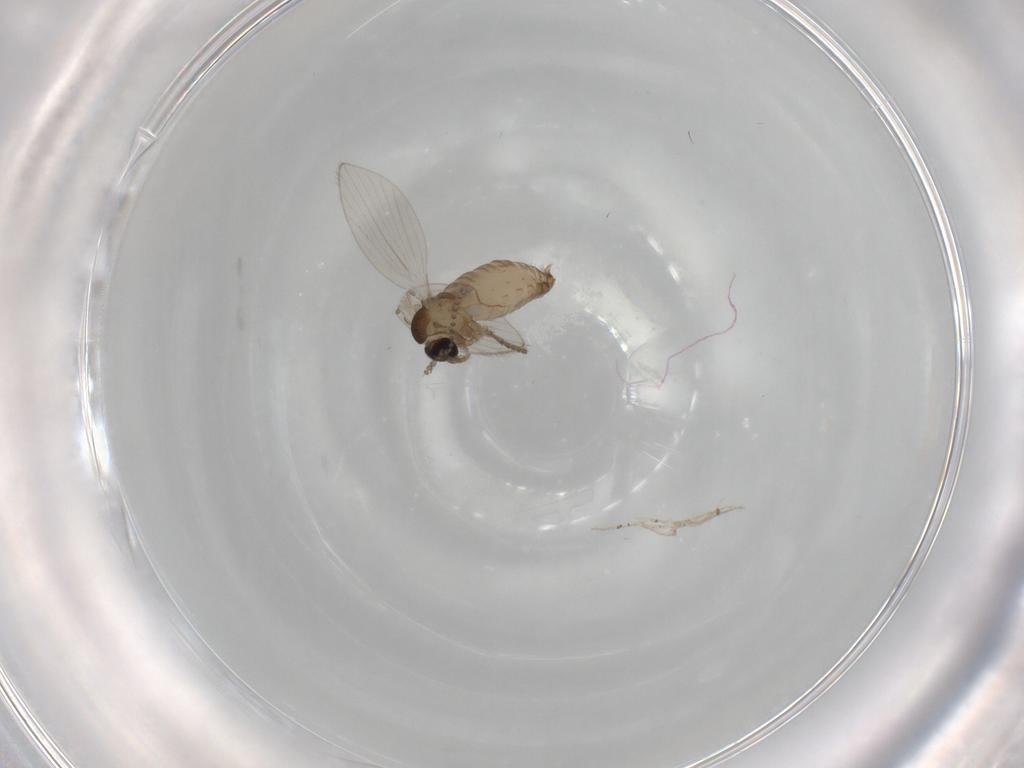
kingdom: Animalia
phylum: Arthropoda
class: Insecta
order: Diptera
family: Psychodidae
